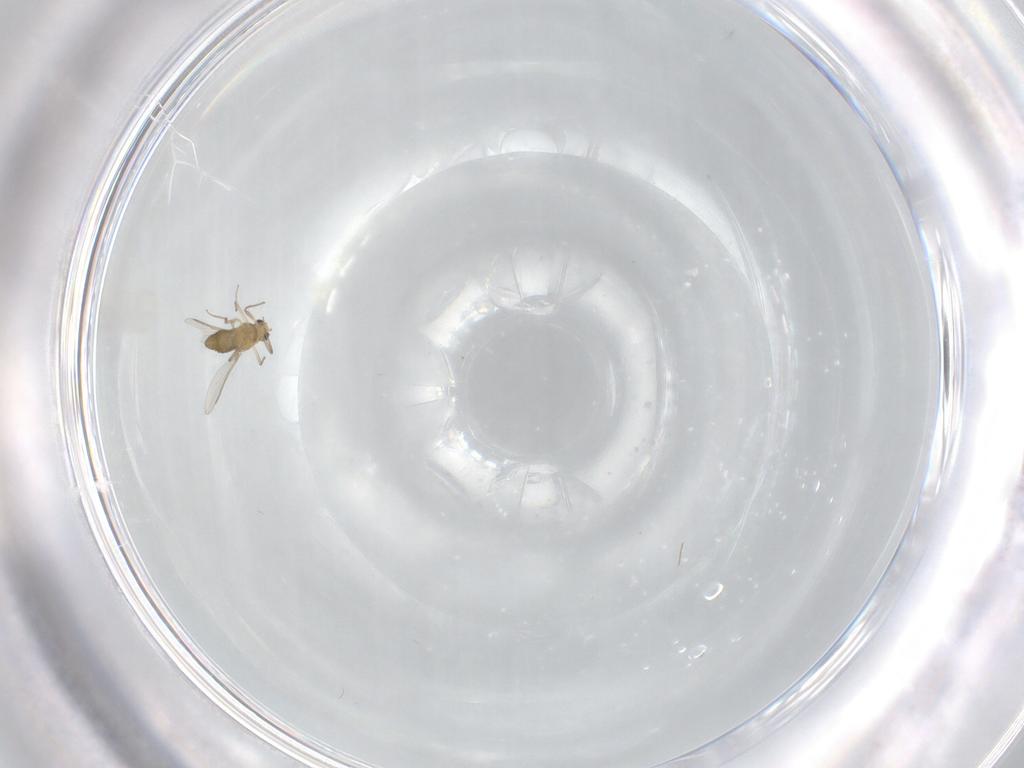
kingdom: Animalia
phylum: Arthropoda
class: Insecta
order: Diptera
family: Chironomidae
